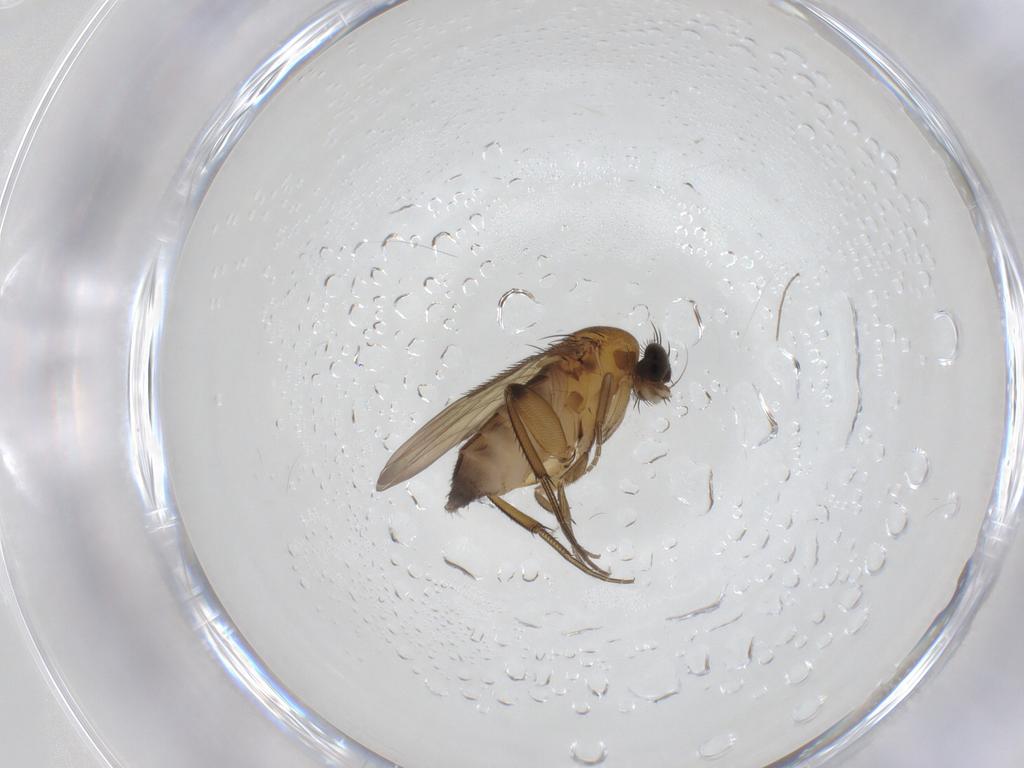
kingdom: Animalia
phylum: Arthropoda
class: Insecta
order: Diptera
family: Phoridae
